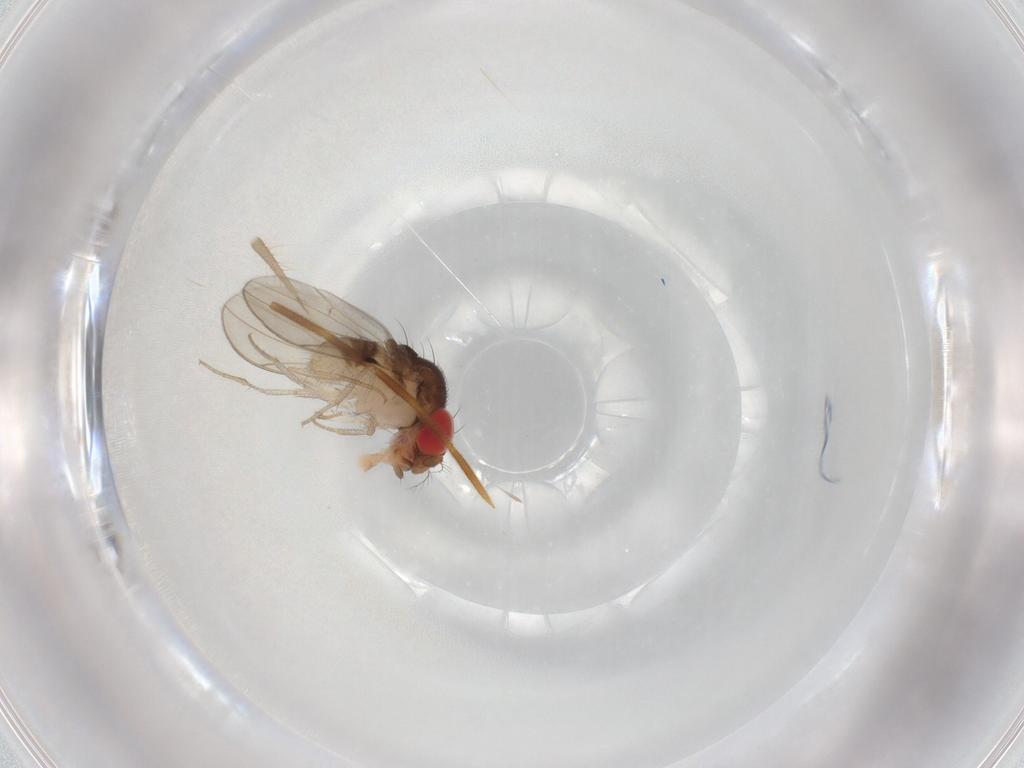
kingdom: Animalia
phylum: Arthropoda
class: Insecta
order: Diptera
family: Drosophilidae
